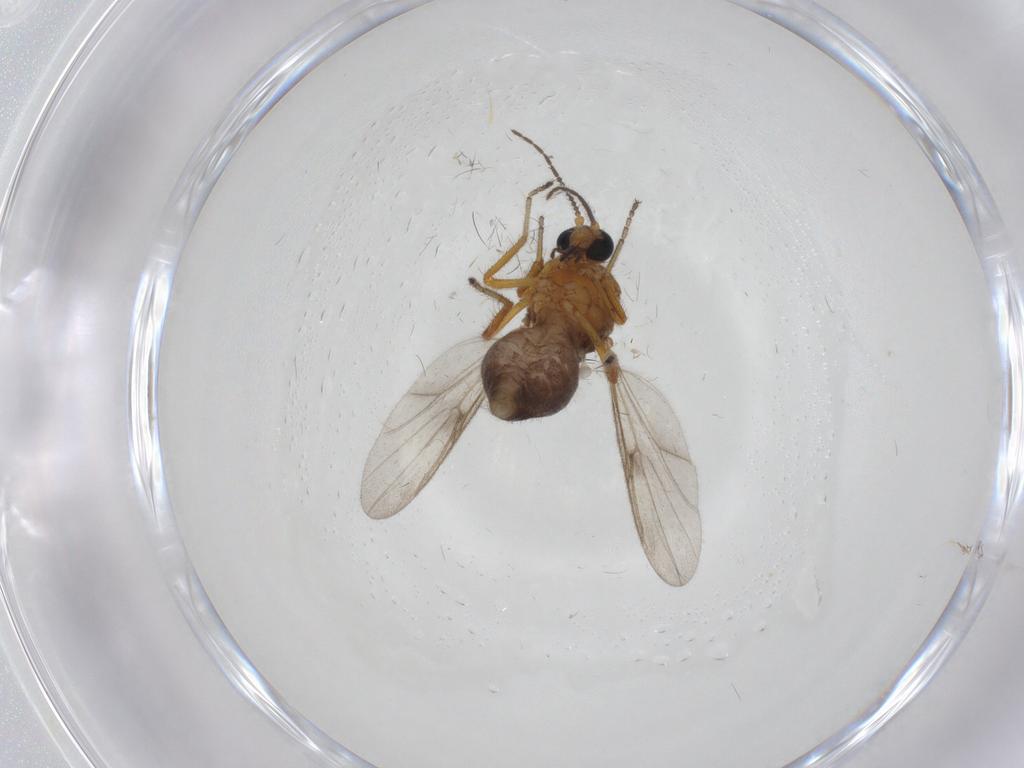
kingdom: Animalia
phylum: Arthropoda
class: Insecta
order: Diptera
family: Ceratopogonidae
